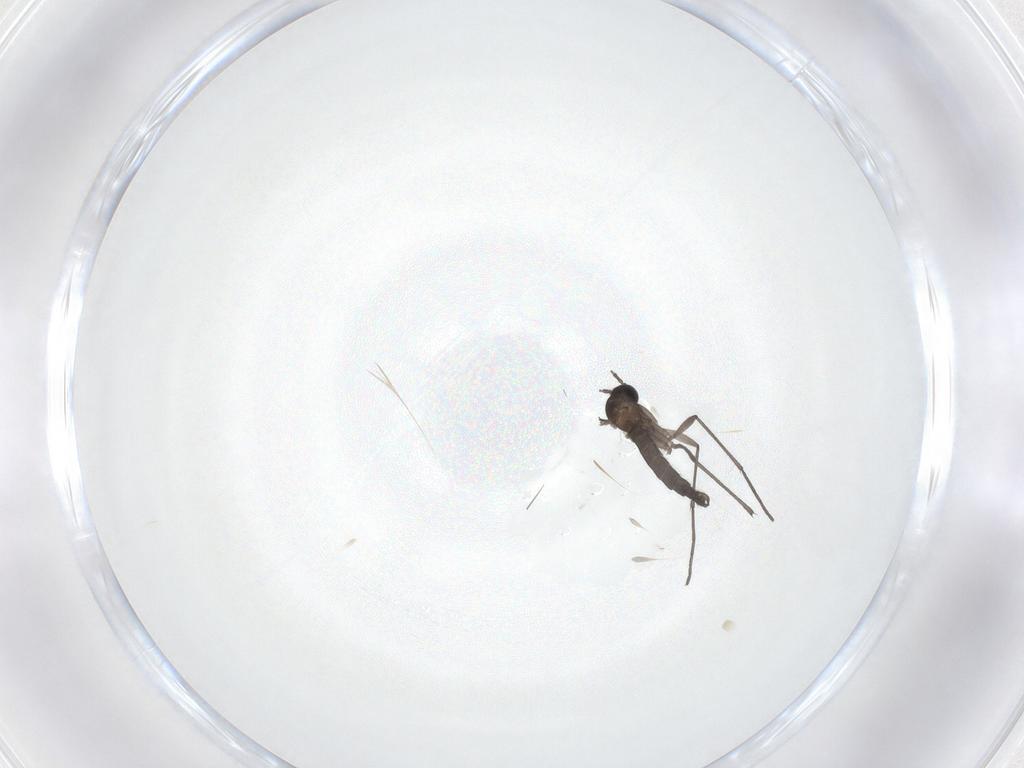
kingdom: Animalia
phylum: Arthropoda
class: Insecta
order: Diptera
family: Sciaridae
